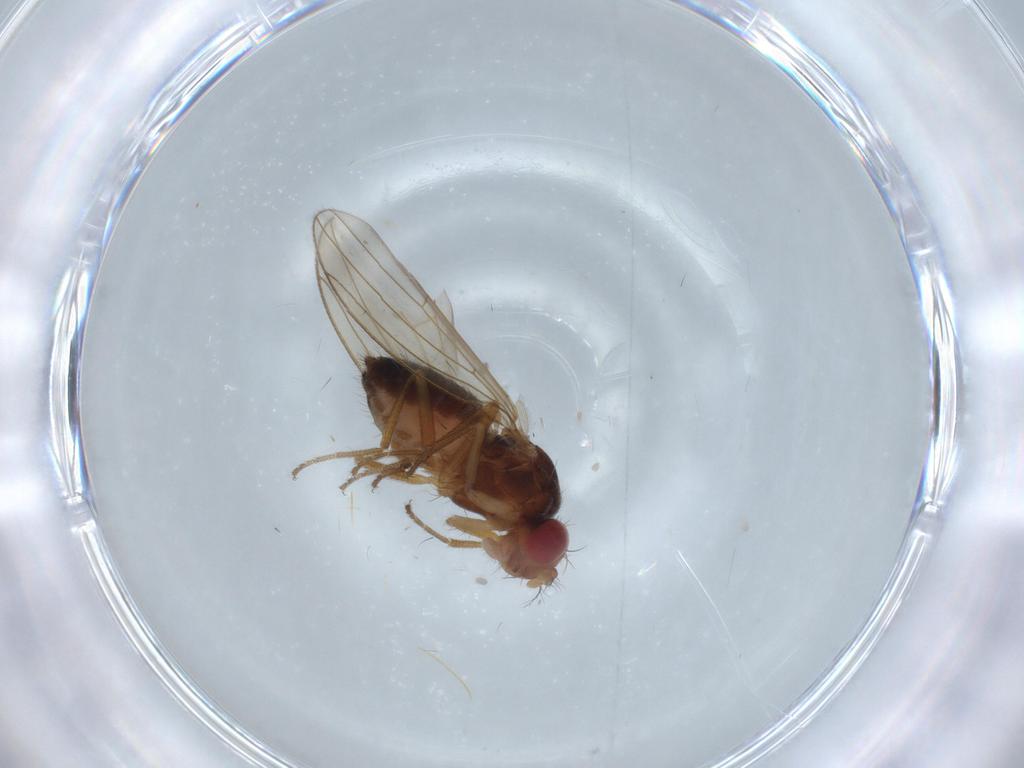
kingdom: Animalia
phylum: Arthropoda
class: Insecta
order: Diptera
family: Drosophilidae
